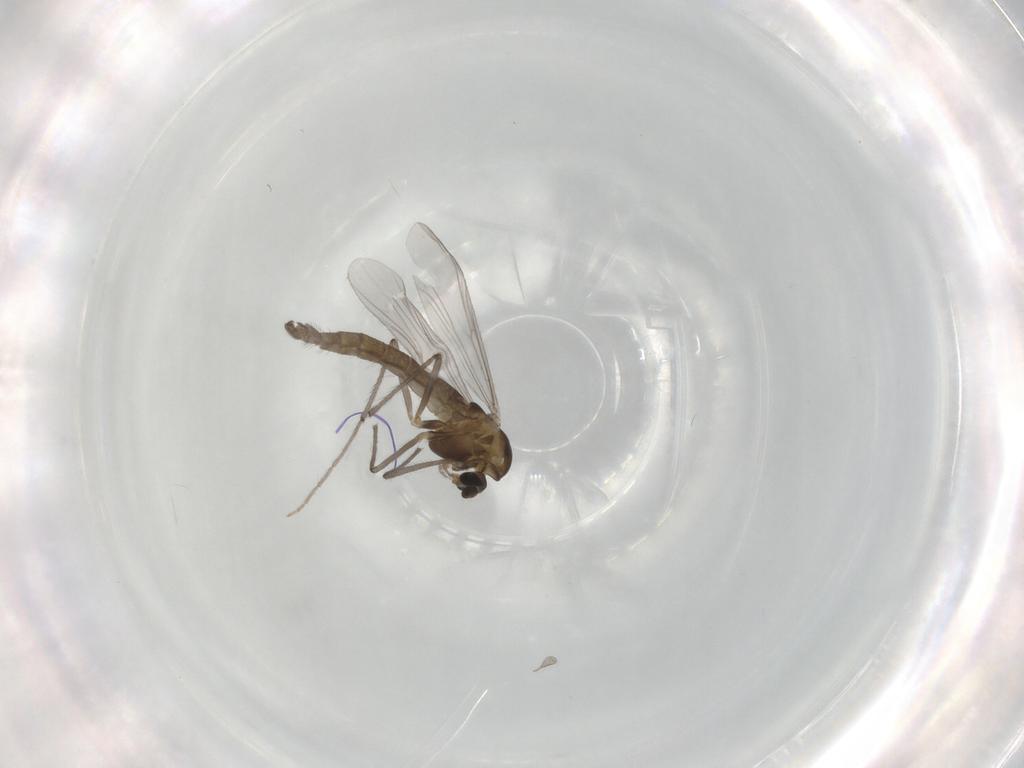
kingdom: Animalia
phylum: Arthropoda
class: Insecta
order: Diptera
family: Chironomidae
